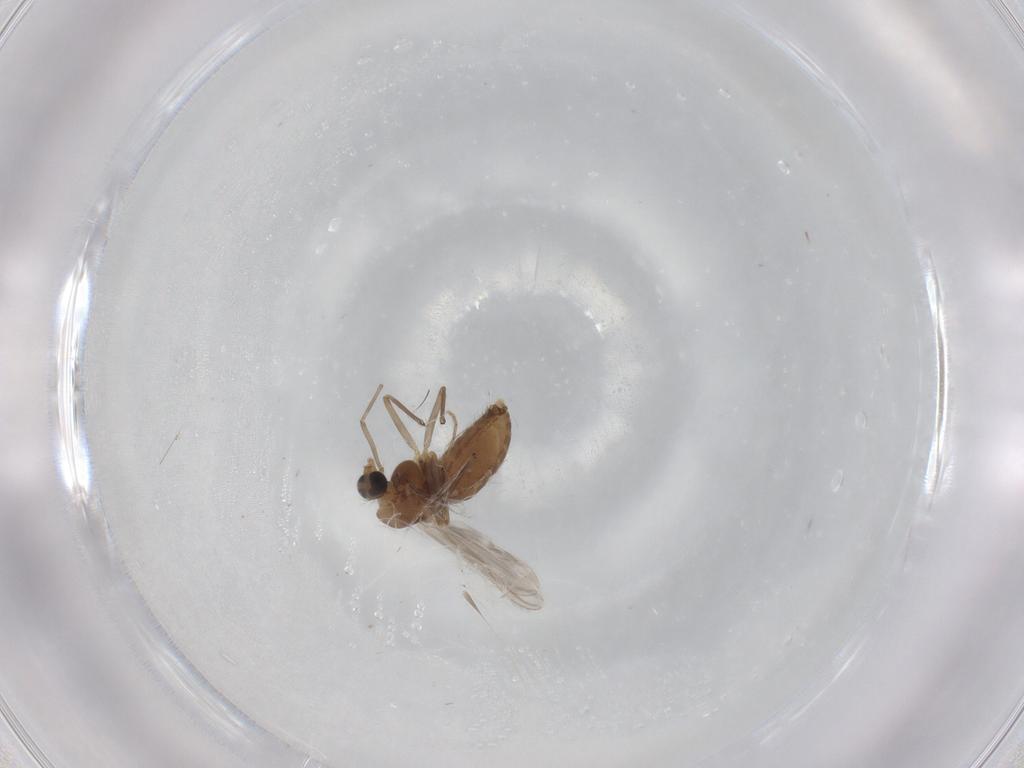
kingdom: Animalia
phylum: Arthropoda
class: Insecta
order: Diptera
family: Chironomidae
